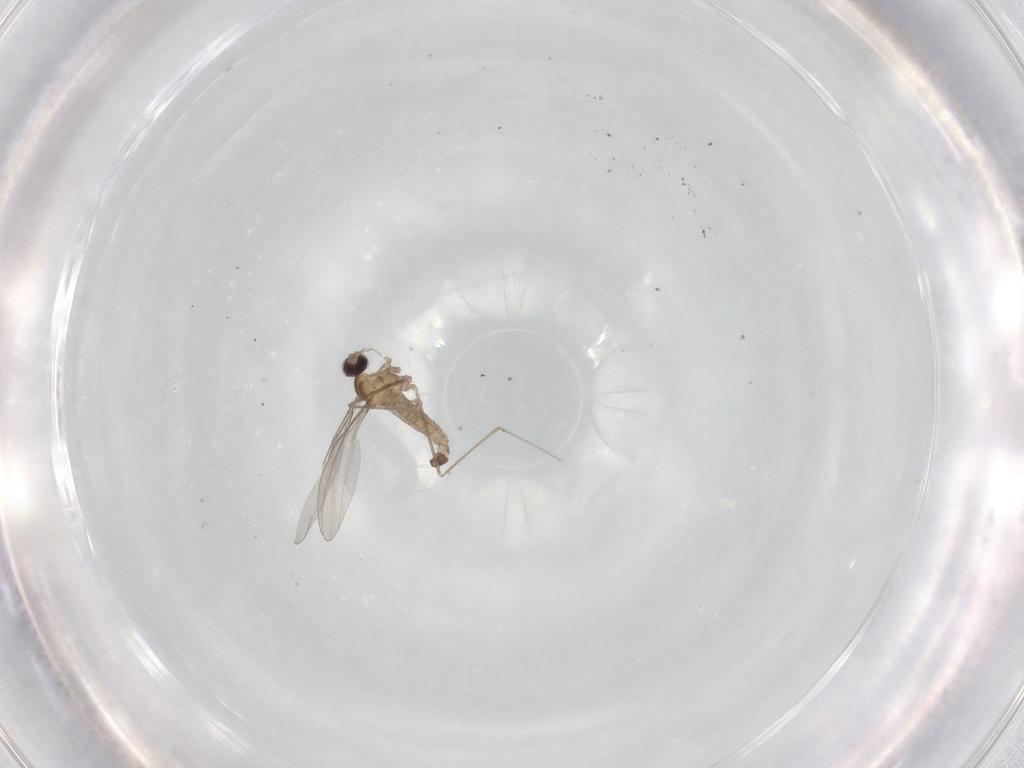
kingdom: Animalia
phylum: Arthropoda
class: Insecta
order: Diptera
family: Cecidomyiidae
